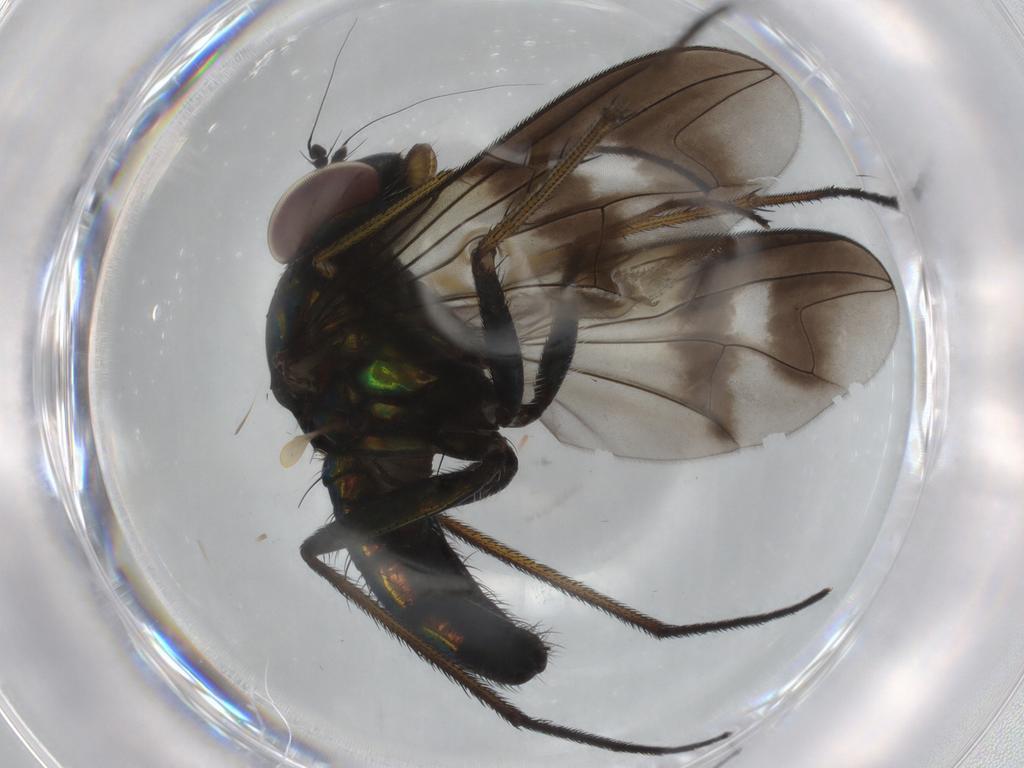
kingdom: Animalia
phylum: Arthropoda
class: Insecta
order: Diptera
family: Dolichopodidae
